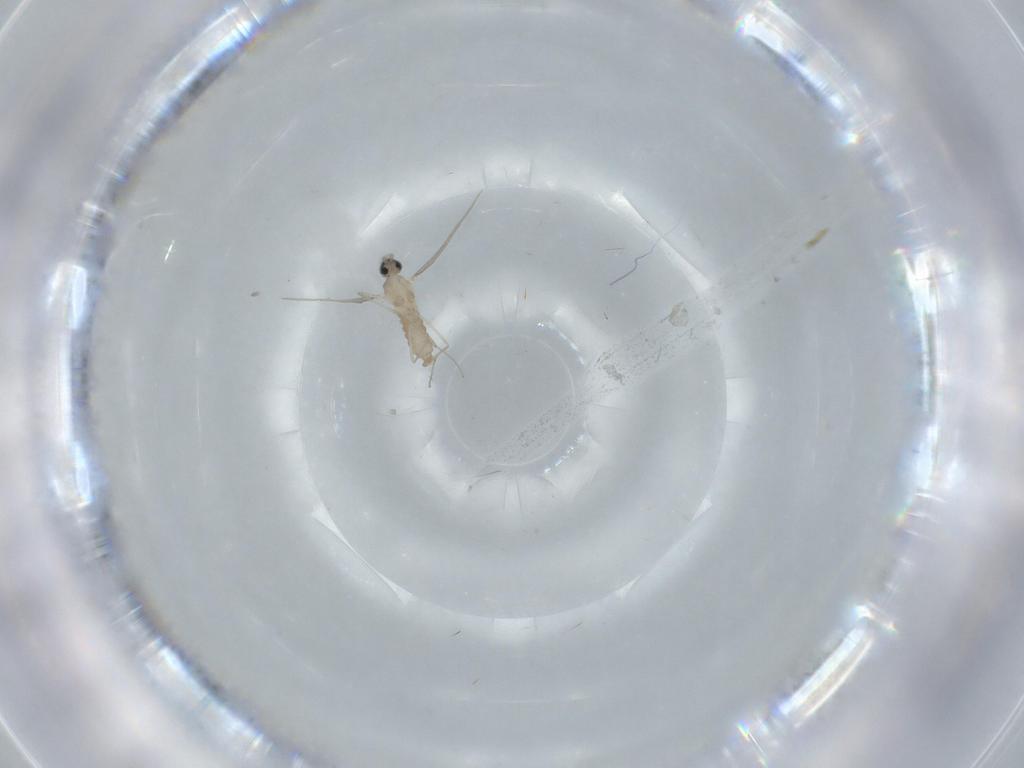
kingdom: Animalia
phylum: Arthropoda
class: Insecta
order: Diptera
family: Cecidomyiidae
